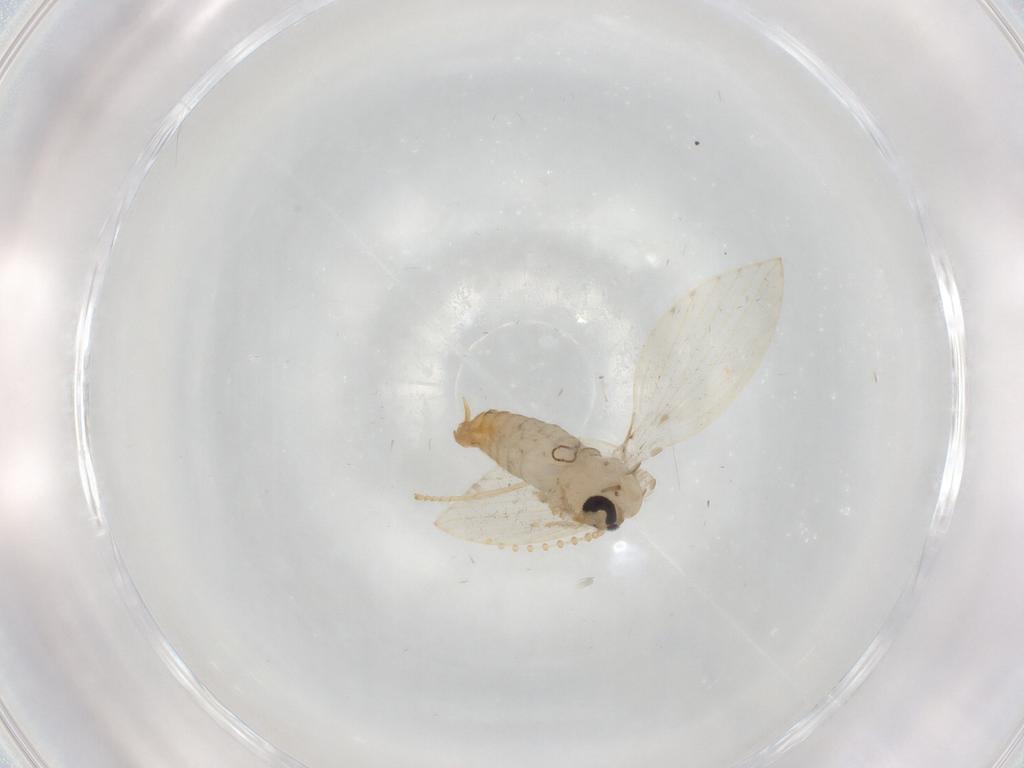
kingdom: Animalia
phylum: Arthropoda
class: Insecta
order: Diptera
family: Psychodidae
